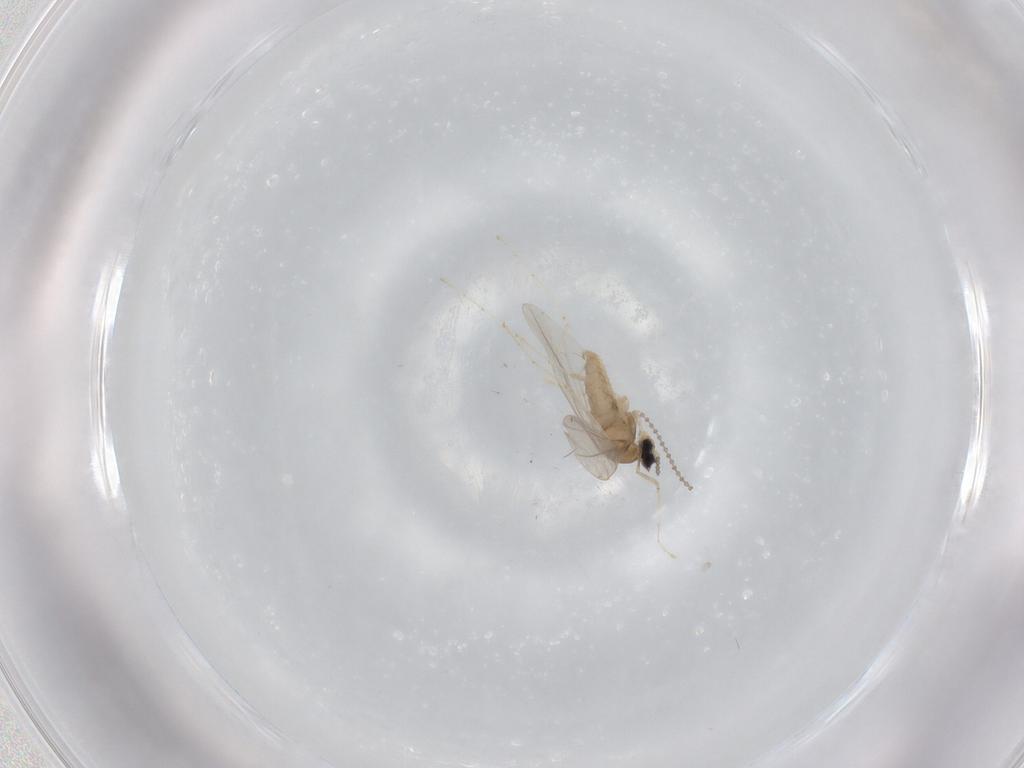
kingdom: Animalia
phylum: Arthropoda
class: Insecta
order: Diptera
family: Cecidomyiidae
